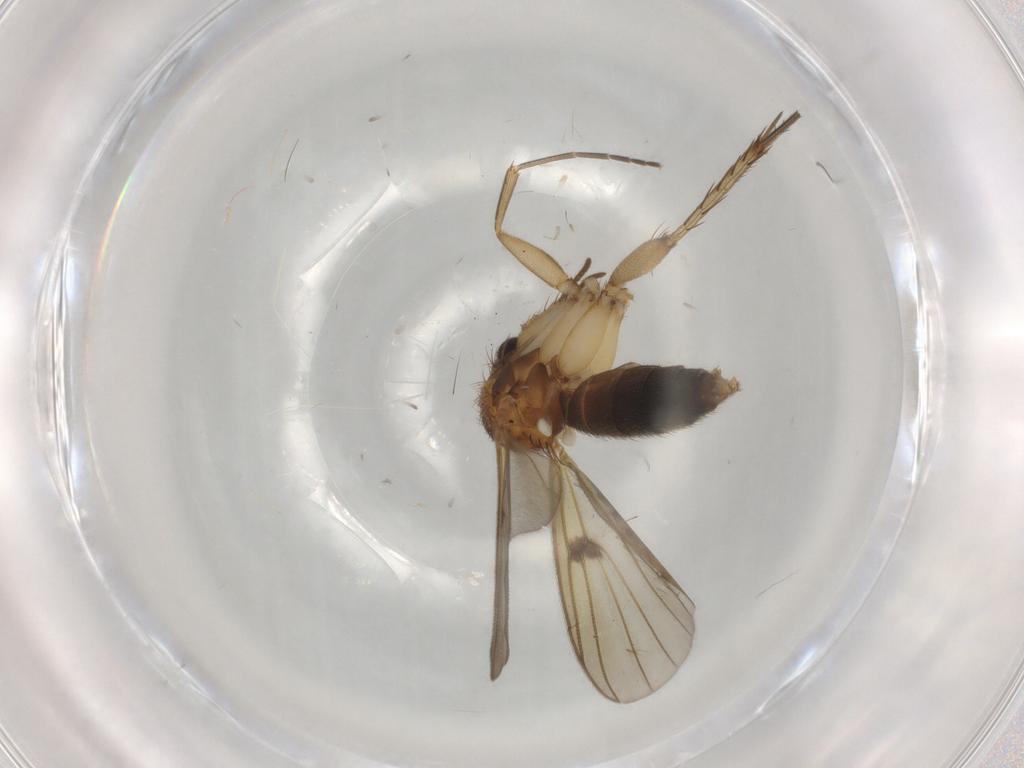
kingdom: Animalia
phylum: Arthropoda
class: Insecta
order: Diptera
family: Mycetophilidae
